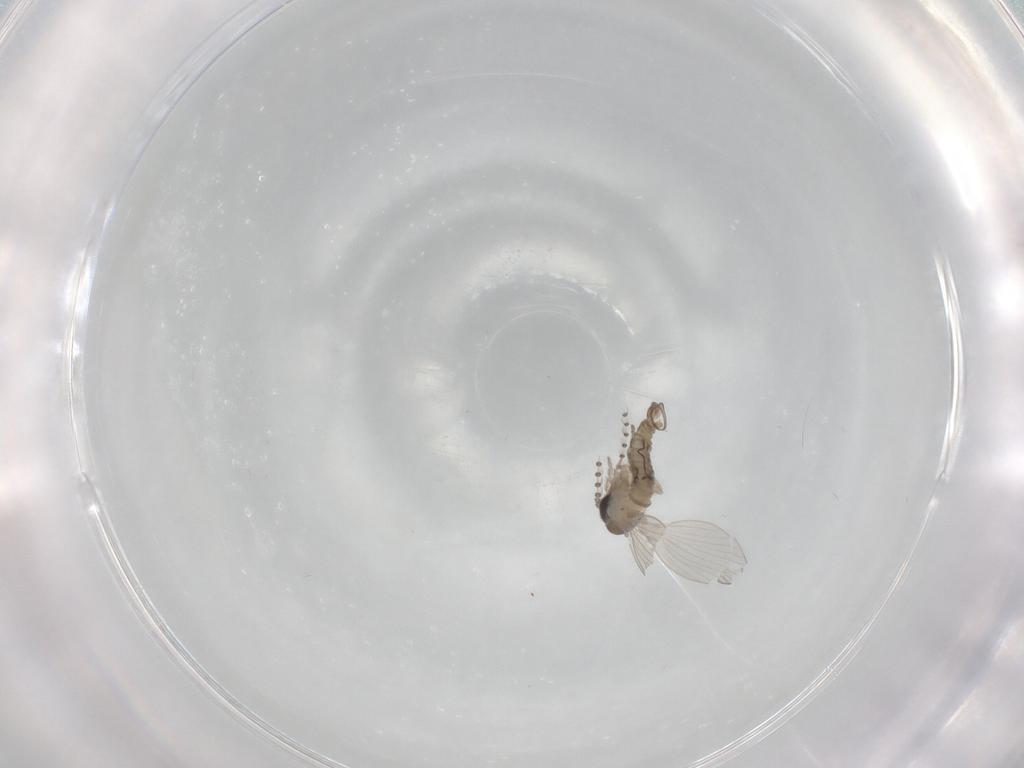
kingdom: Animalia
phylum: Arthropoda
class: Insecta
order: Diptera
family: Psychodidae
